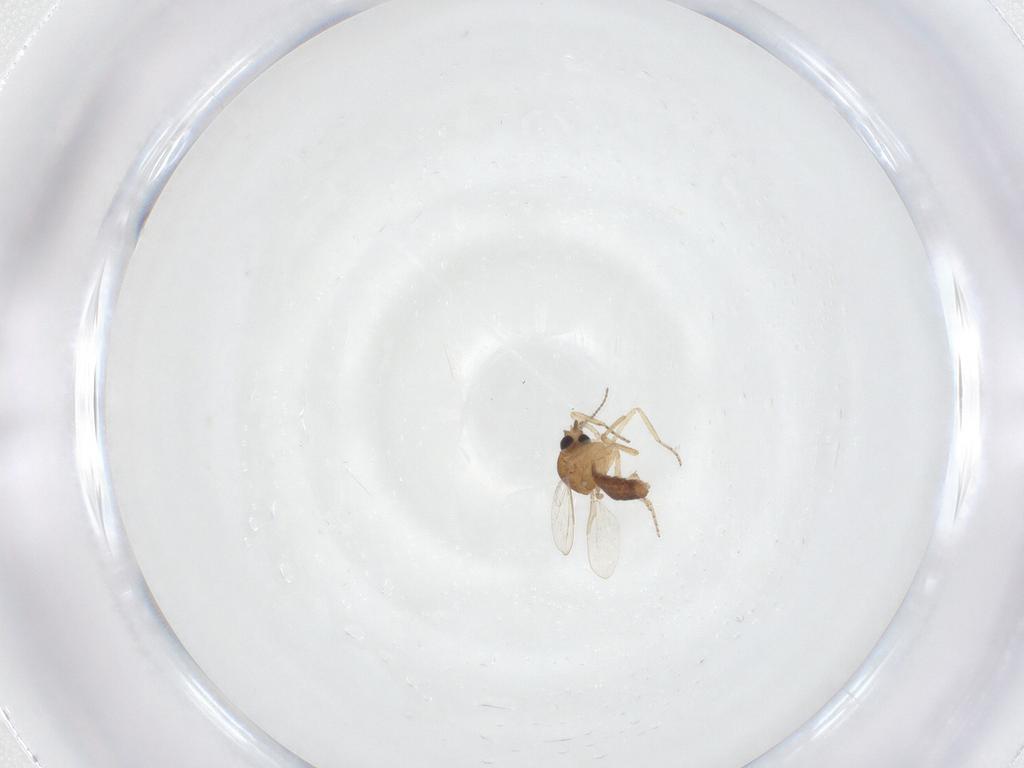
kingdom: Animalia
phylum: Arthropoda
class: Insecta
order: Diptera
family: Ceratopogonidae
